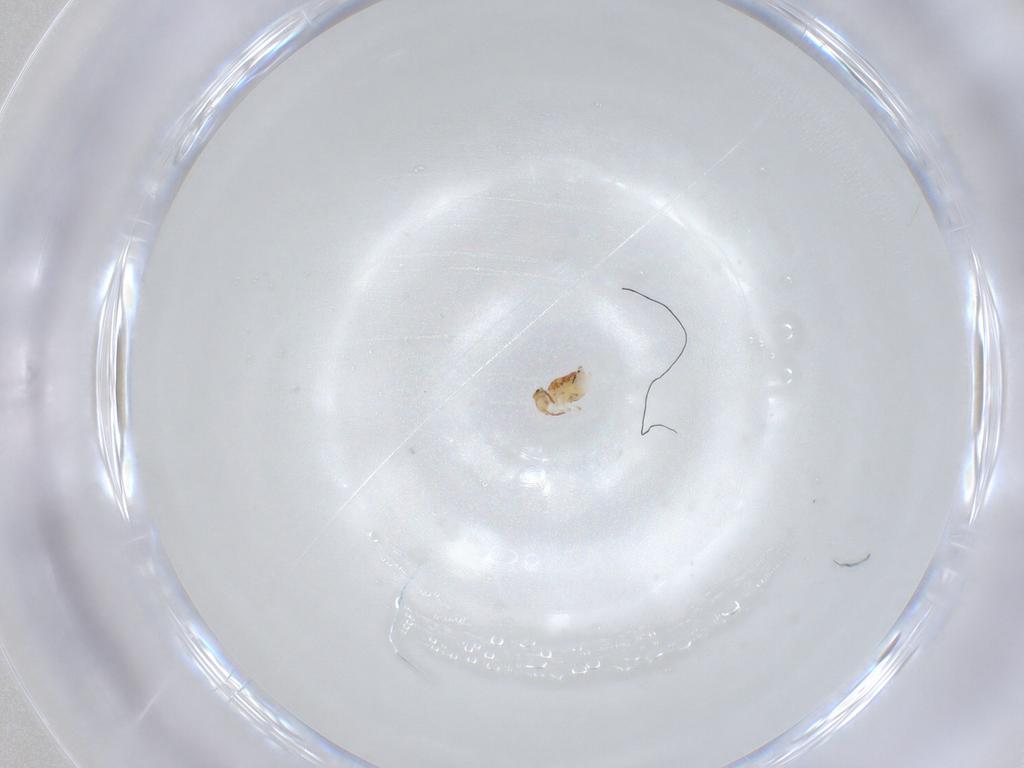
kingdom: Animalia
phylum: Arthropoda
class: Collembola
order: Symphypleona
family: Bourletiellidae
